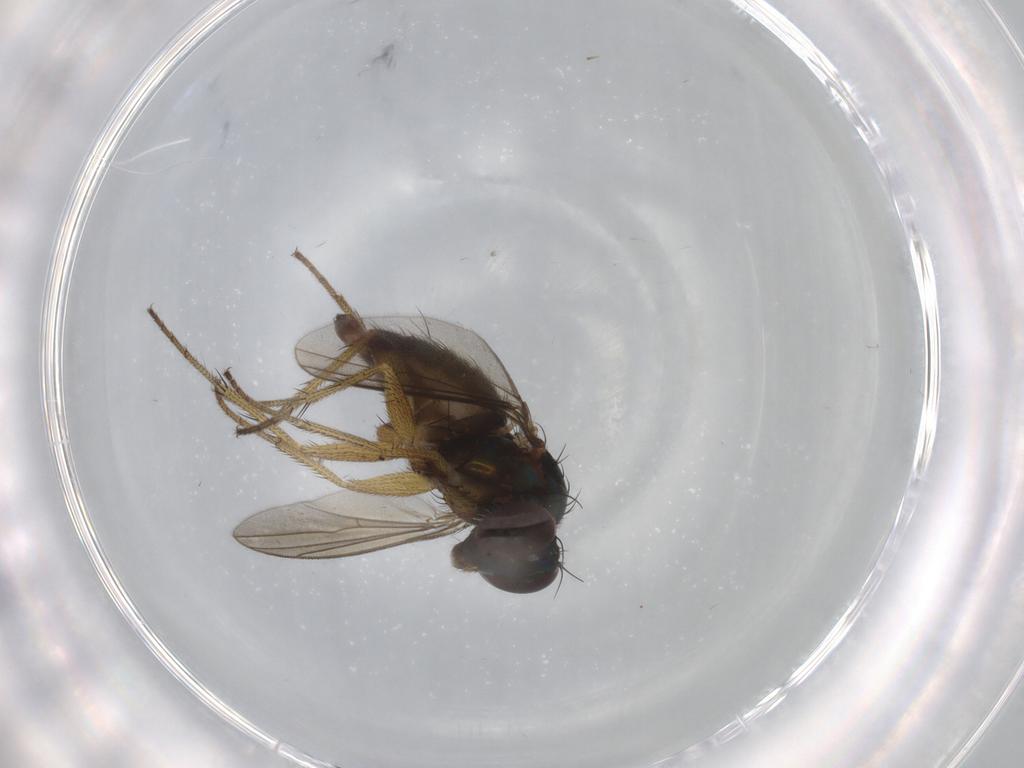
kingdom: Animalia
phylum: Arthropoda
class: Insecta
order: Diptera
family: Dolichopodidae
